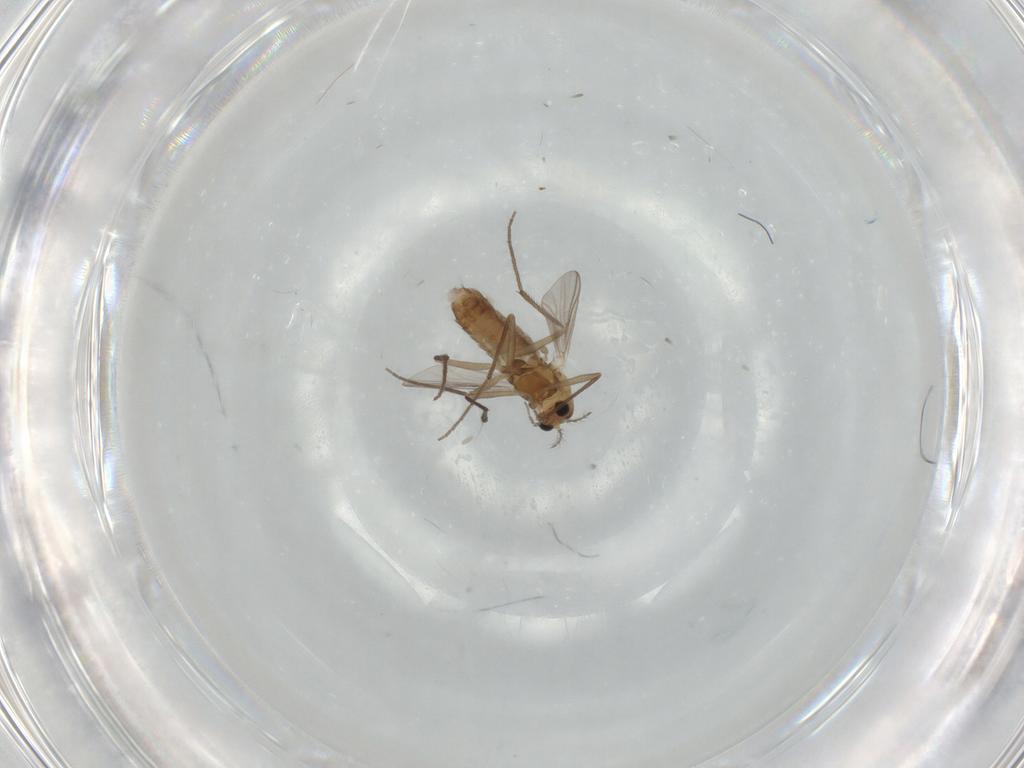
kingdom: Animalia
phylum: Arthropoda
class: Insecta
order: Diptera
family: Chironomidae
